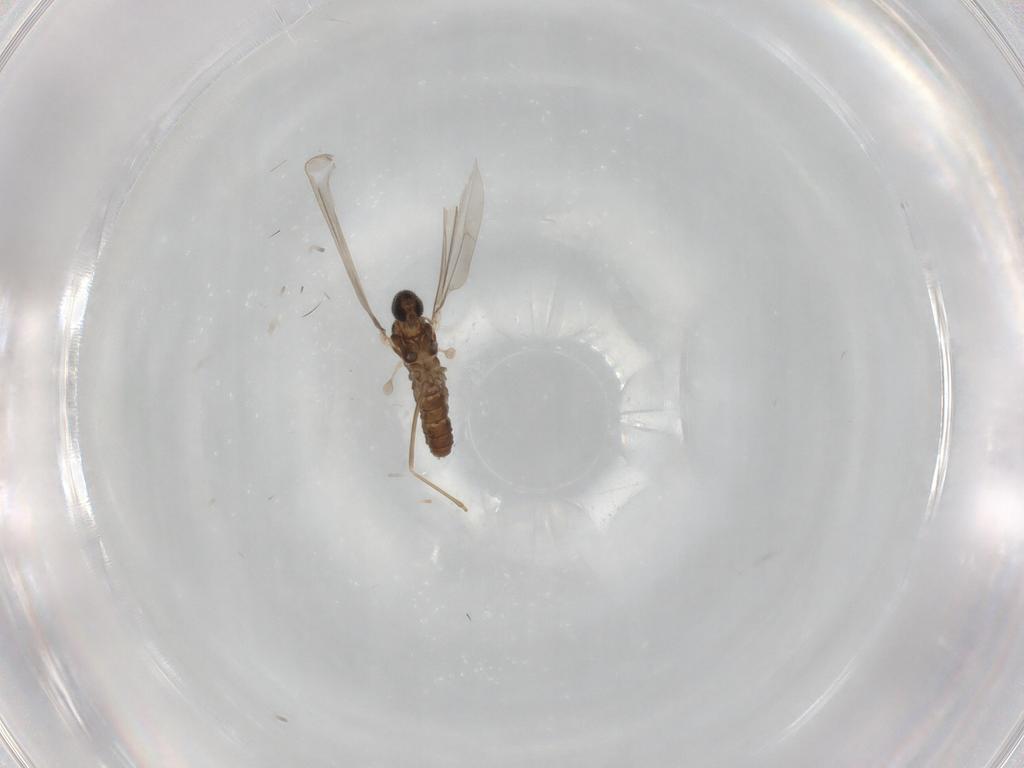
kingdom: Animalia
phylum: Arthropoda
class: Insecta
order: Diptera
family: Cecidomyiidae
